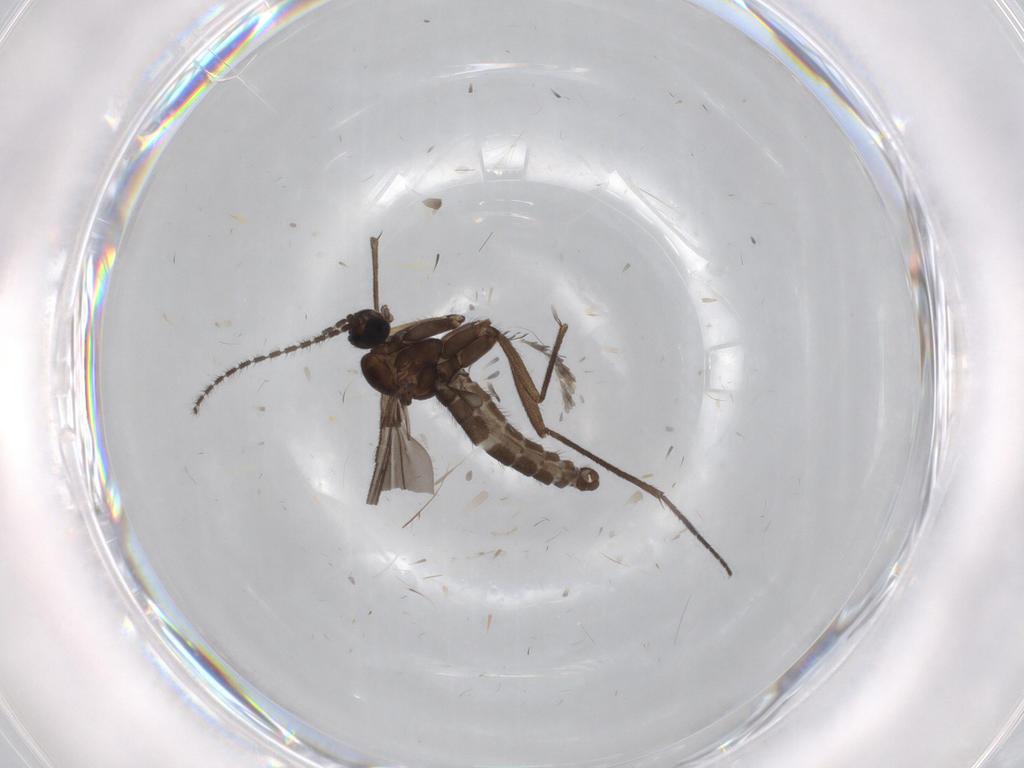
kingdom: Animalia
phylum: Arthropoda
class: Insecta
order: Diptera
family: Sciaridae
